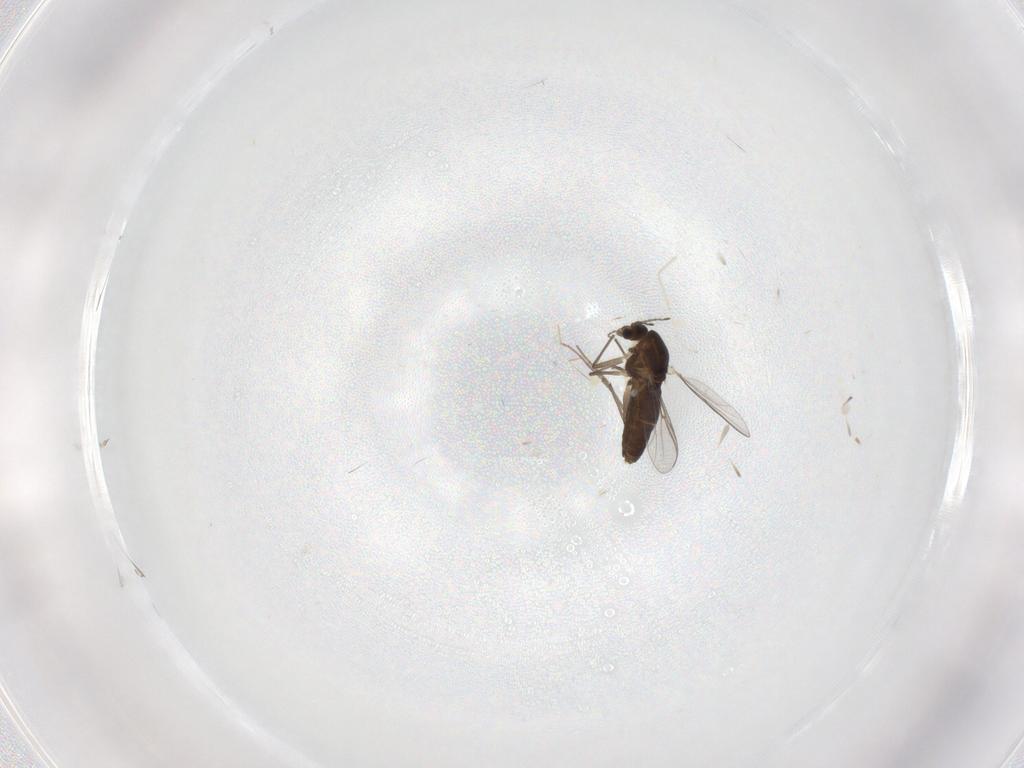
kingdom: Animalia
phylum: Arthropoda
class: Insecta
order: Diptera
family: Chironomidae
